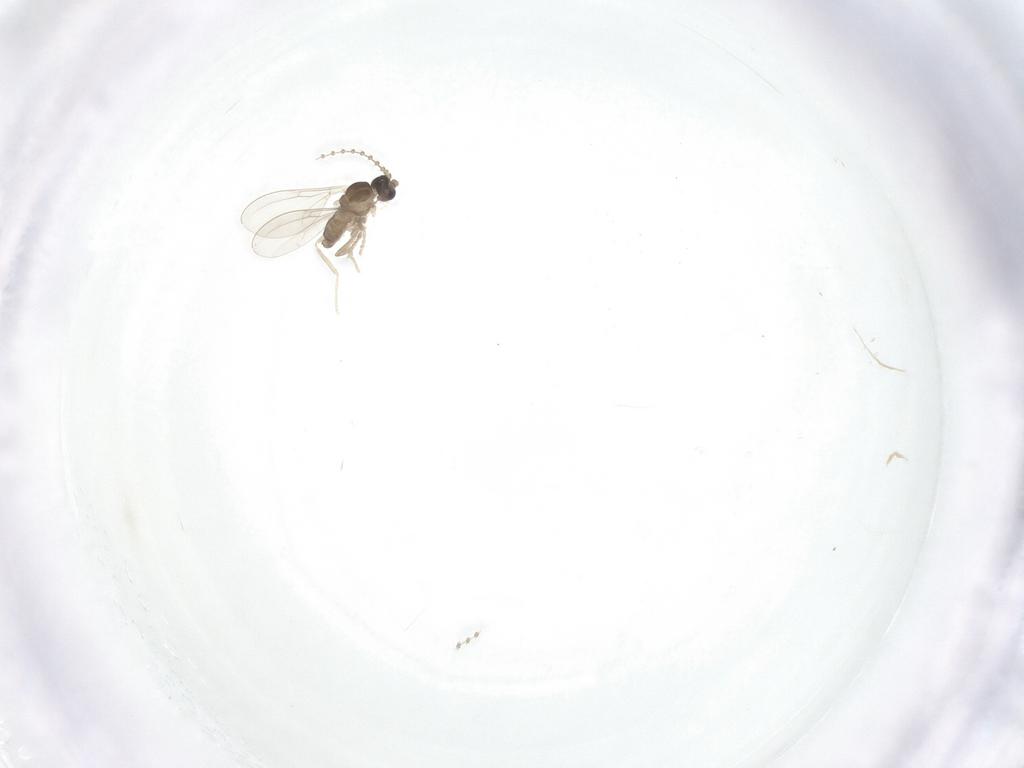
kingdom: Animalia
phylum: Arthropoda
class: Insecta
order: Diptera
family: Cecidomyiidae
